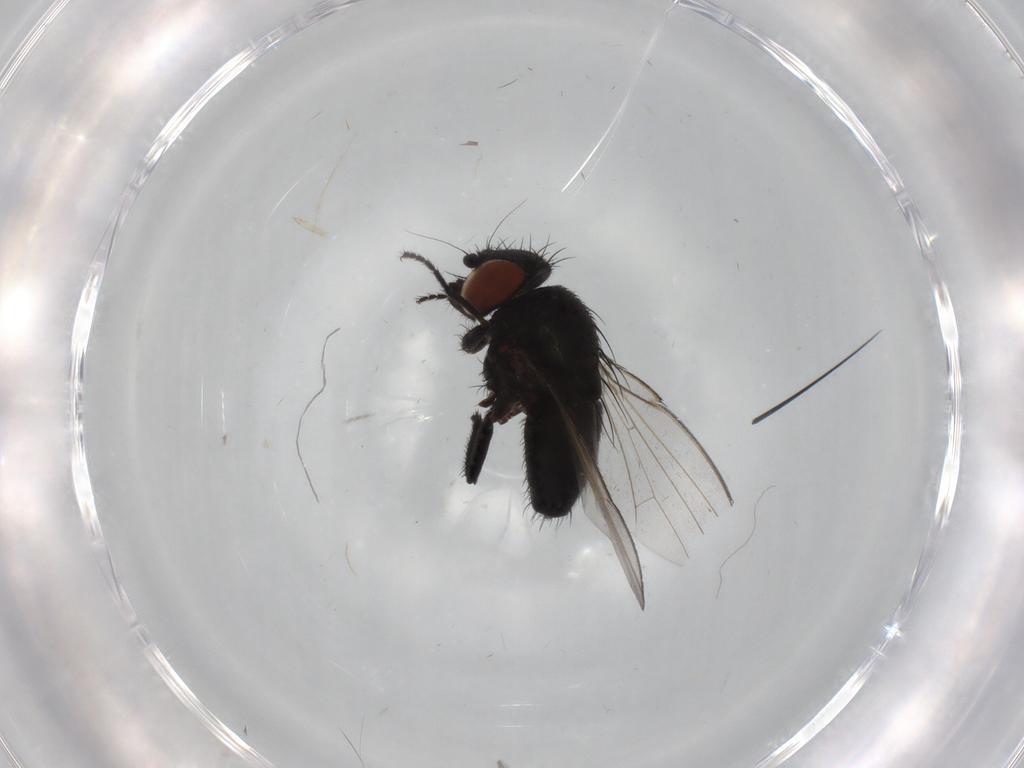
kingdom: Animalia
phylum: Arthropoda
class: Insecta
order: Diptera
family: Milichiidae
